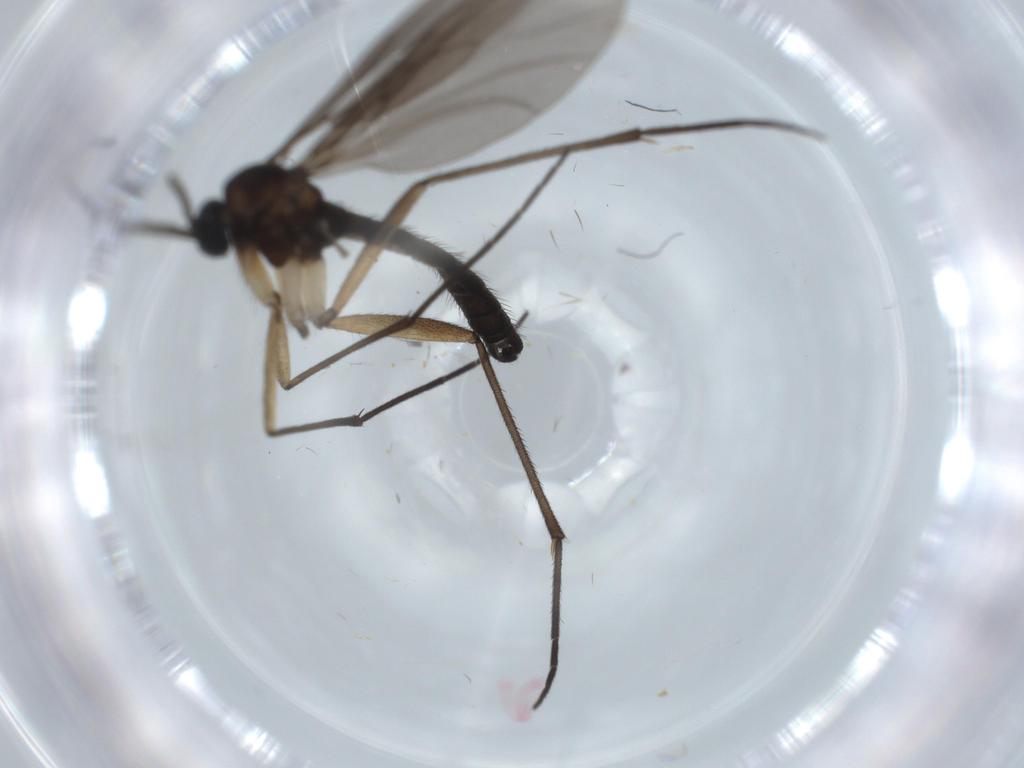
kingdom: Animalia
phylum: Arthropoda
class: Insecta
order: Diptera
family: Sciaridae
